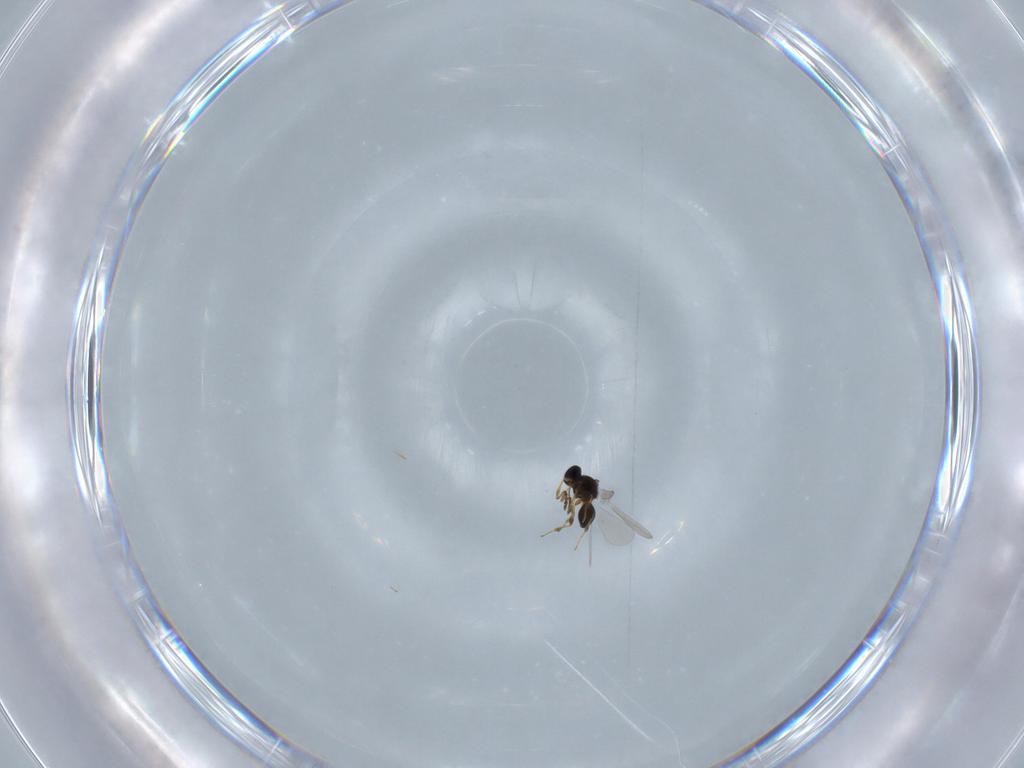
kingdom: Animalia
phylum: Arthropoda
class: Insecta
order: Hymenoptera
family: Platygastridae
